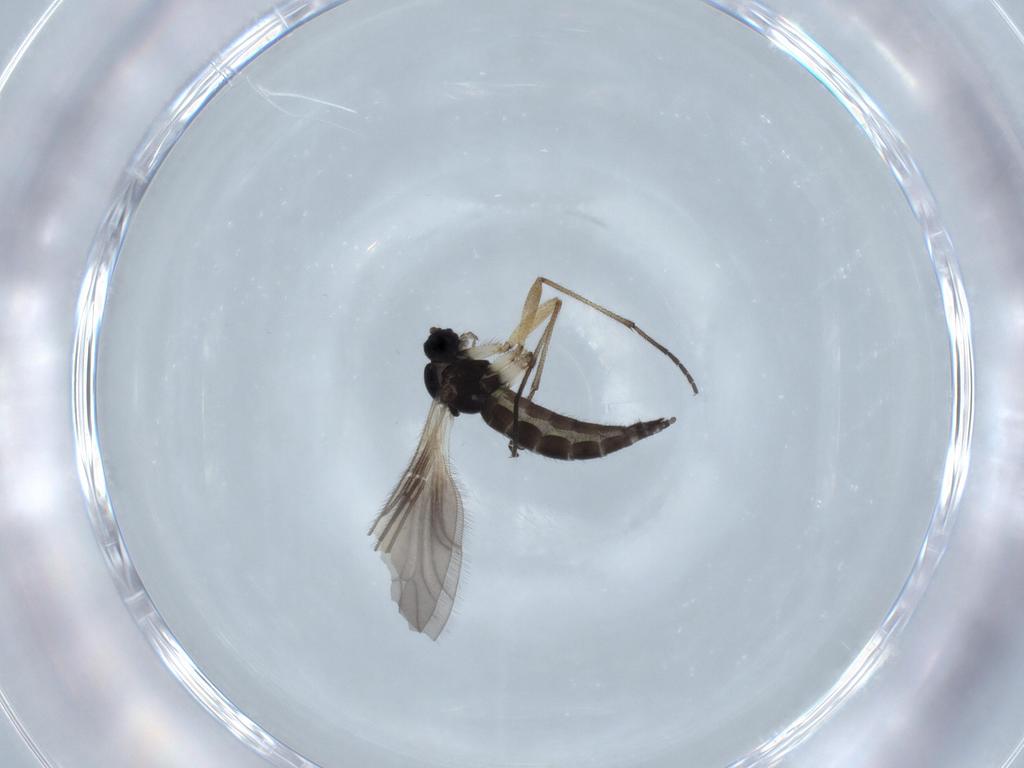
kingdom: Animalia
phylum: Arthropoda
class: Insecta
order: Diptera
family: Sciaridae
